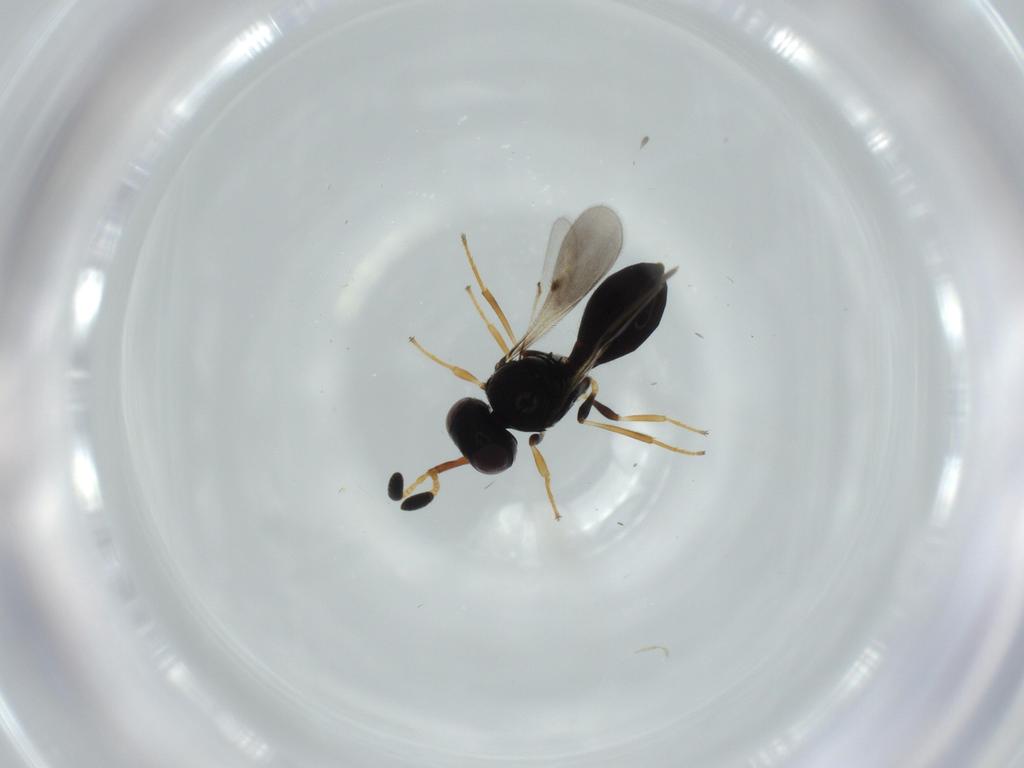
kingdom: Animalia
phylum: Arthropoda
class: Insecta
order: Hymenoptera
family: Scelionidae
